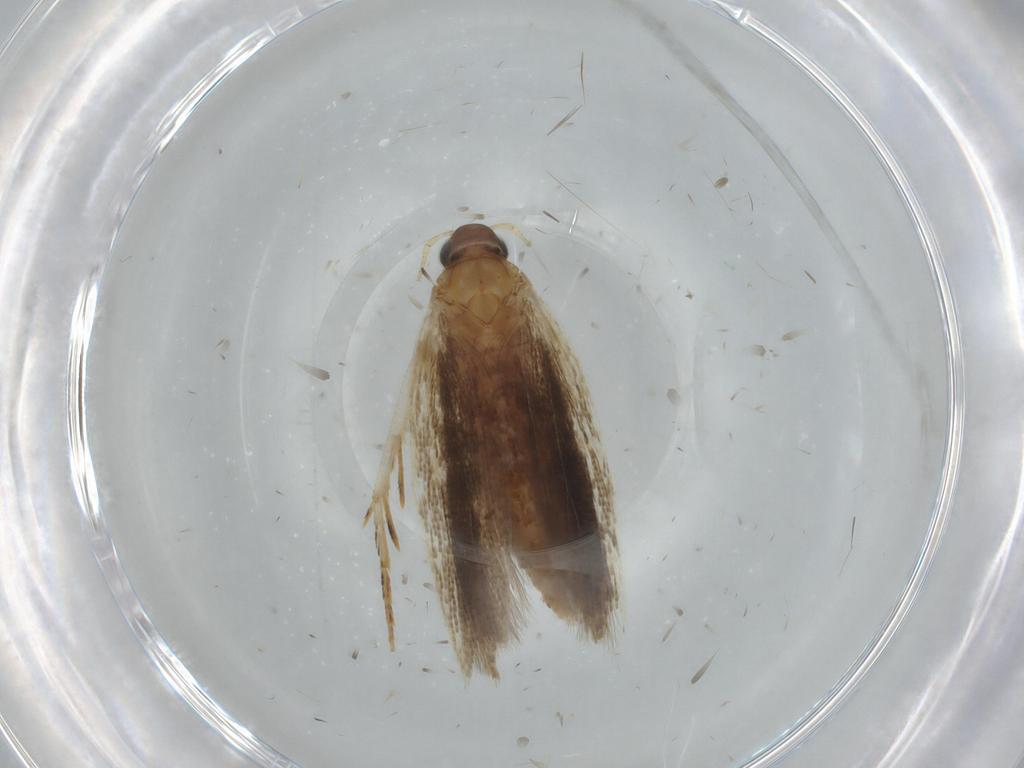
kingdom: Animalia
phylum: Arthropoda
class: Insecta
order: Lepidoptera
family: Gelechiidae
